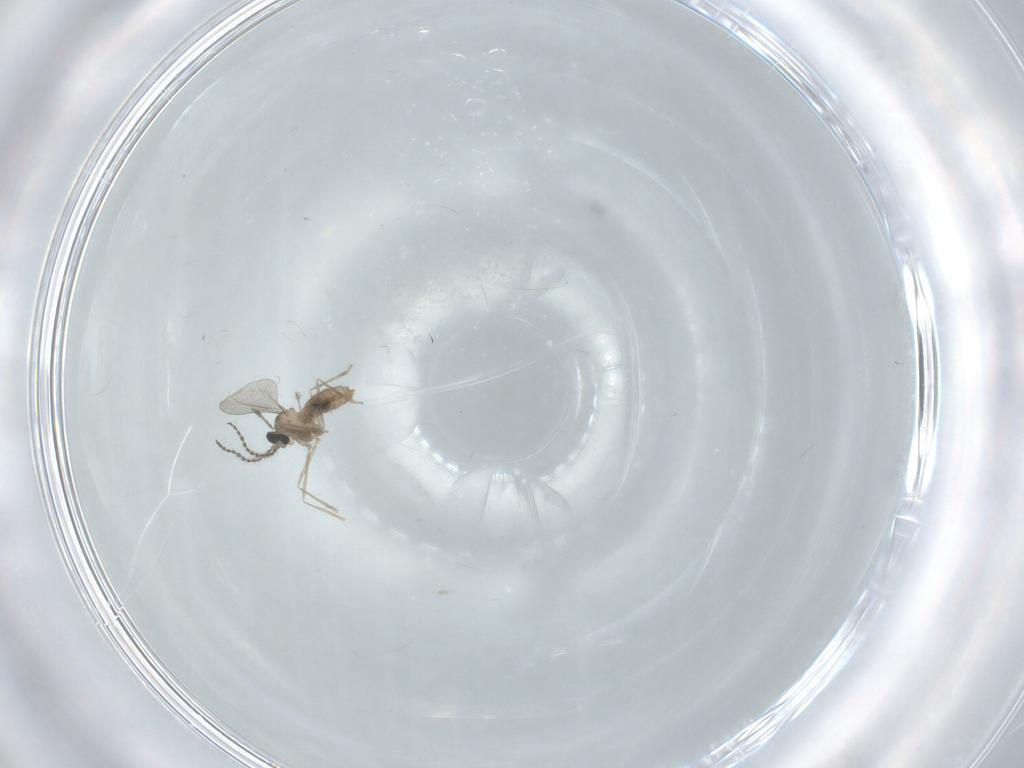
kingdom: Animalia
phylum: Arthropoda
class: Insecta
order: Diptera
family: Cecidomyiidae
